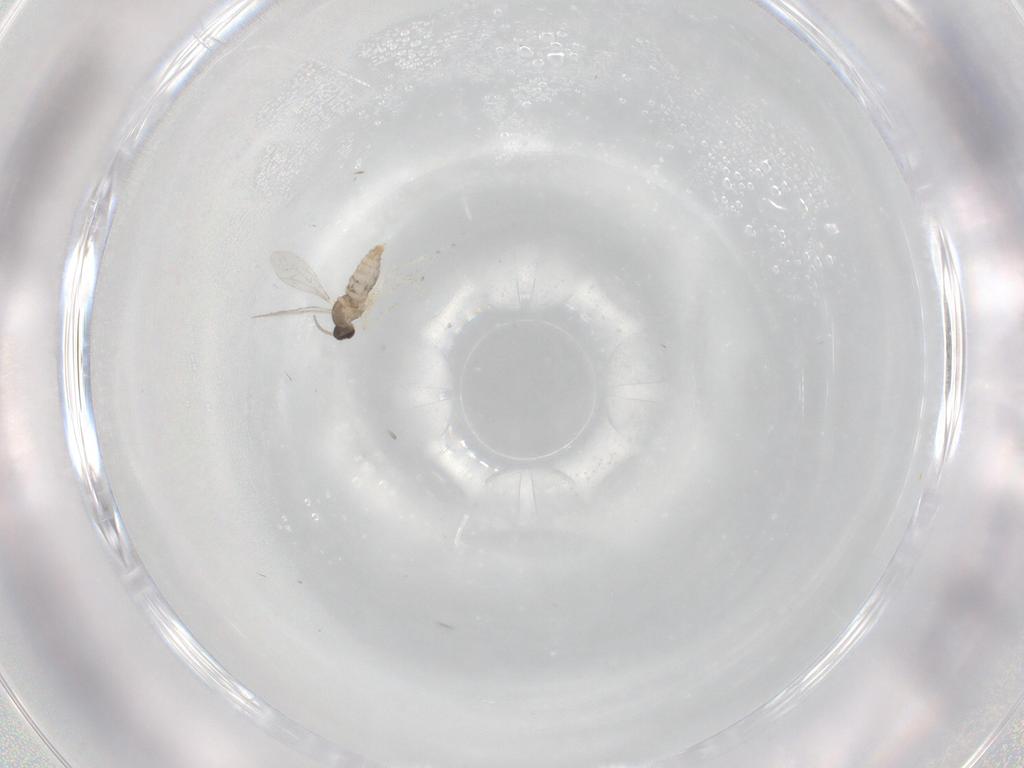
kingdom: Animalia
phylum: Arthropoda
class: Insecta
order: Diptera
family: Cecidomyiidae
